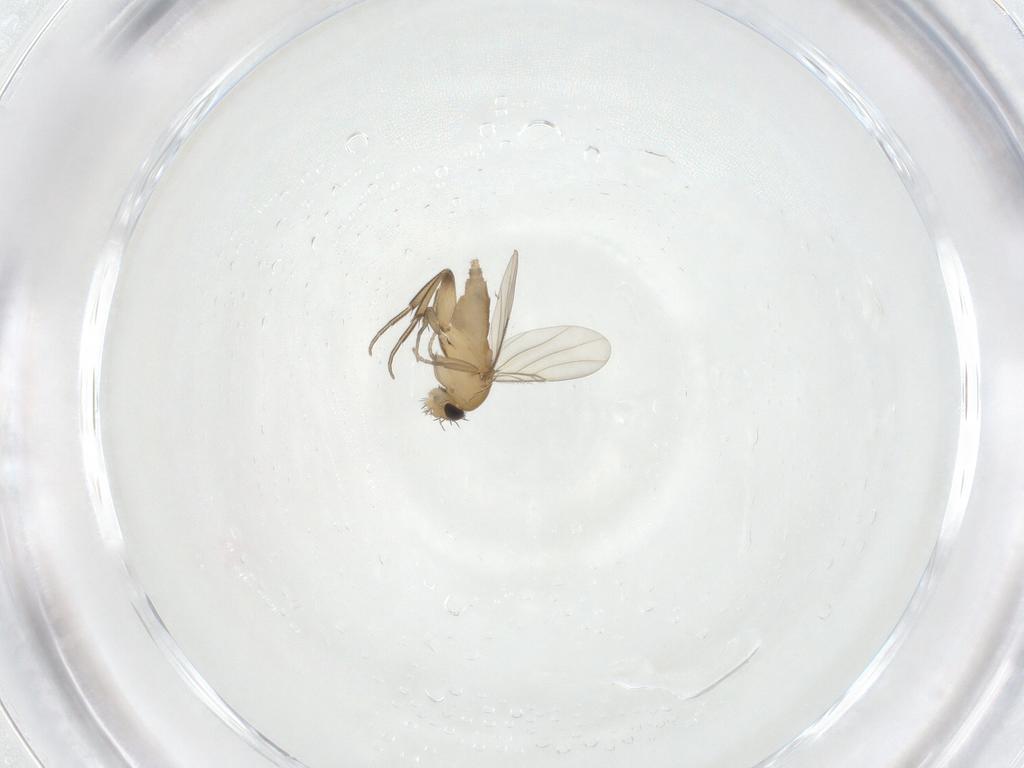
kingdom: Animalia
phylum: Arthropoda
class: Insecta
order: Diptera
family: Phoridae
